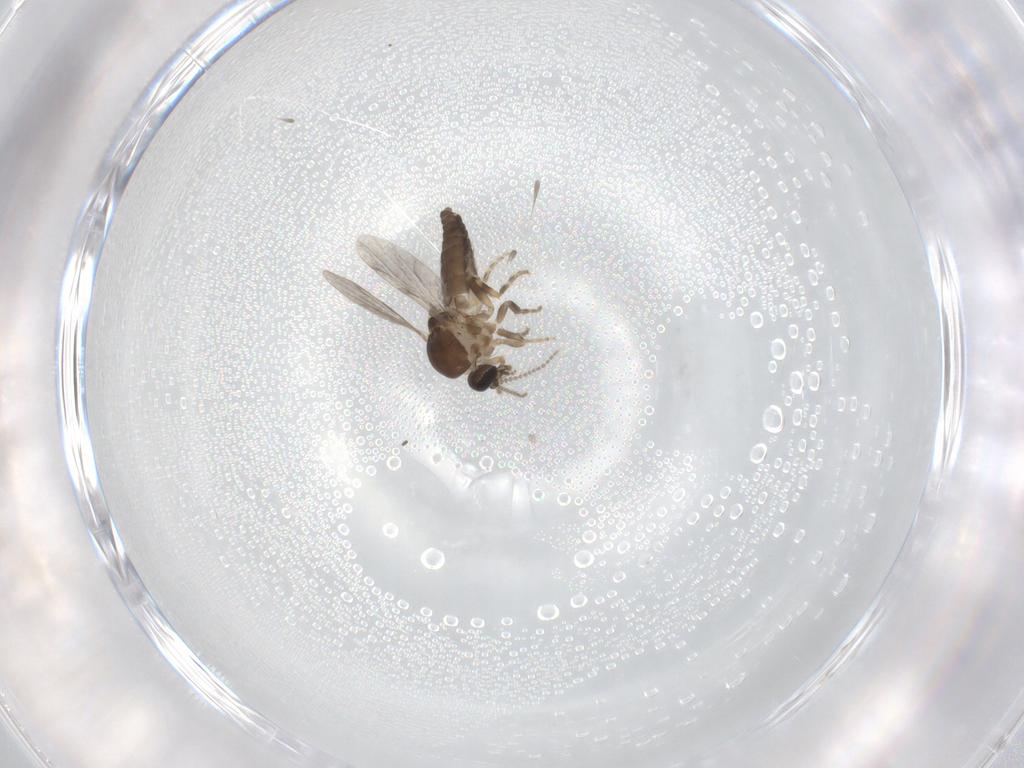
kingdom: Animalia
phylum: Arthropoda
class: Insecta
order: Diptera
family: Ceratopogonidae
